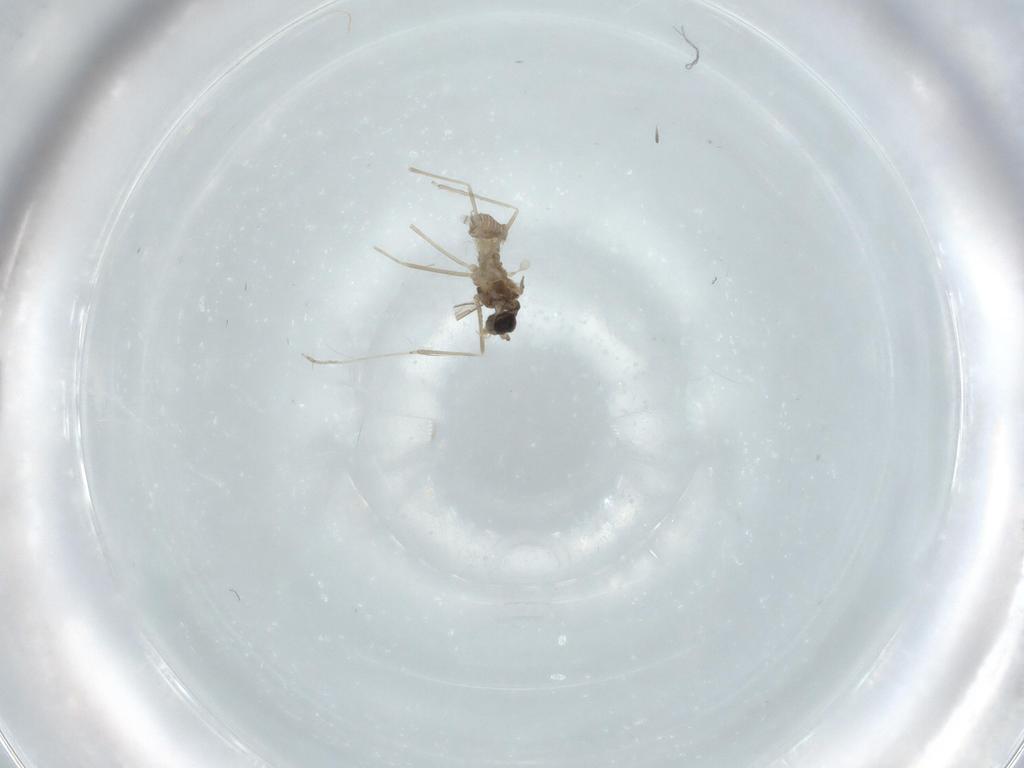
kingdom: Animalia
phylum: Arthropoda
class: Insecta
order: Diptera
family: Cecidomyiidae
